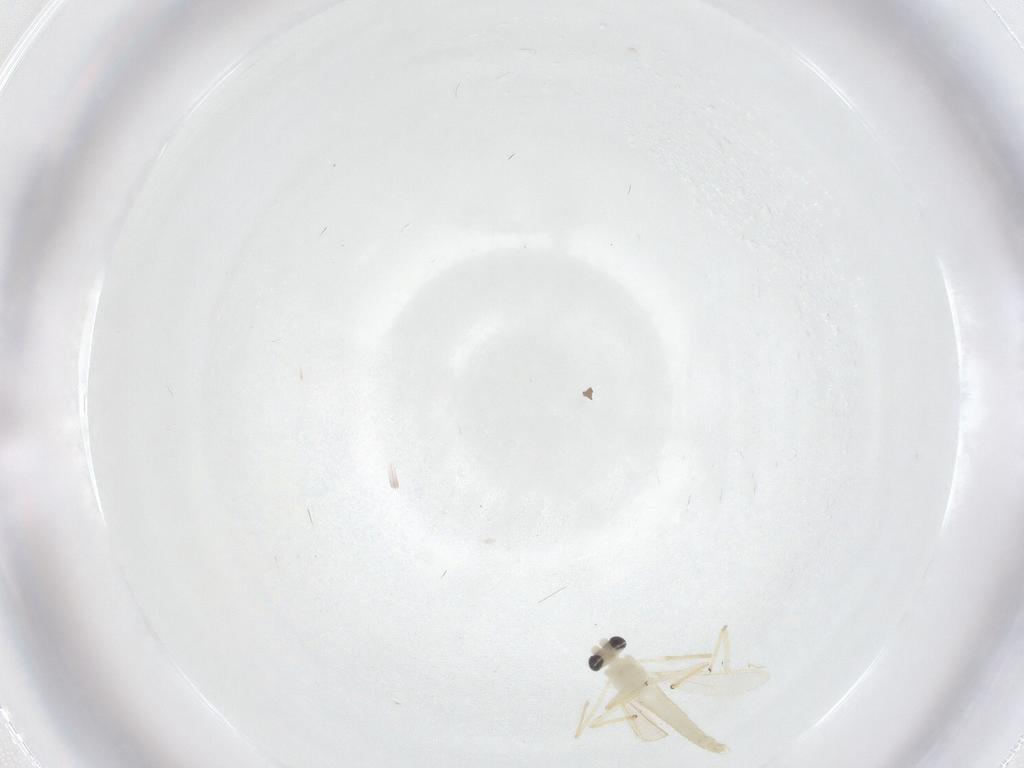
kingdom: Animalia
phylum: Arthropoda
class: Insecta
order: Diptera
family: Chironomidae
